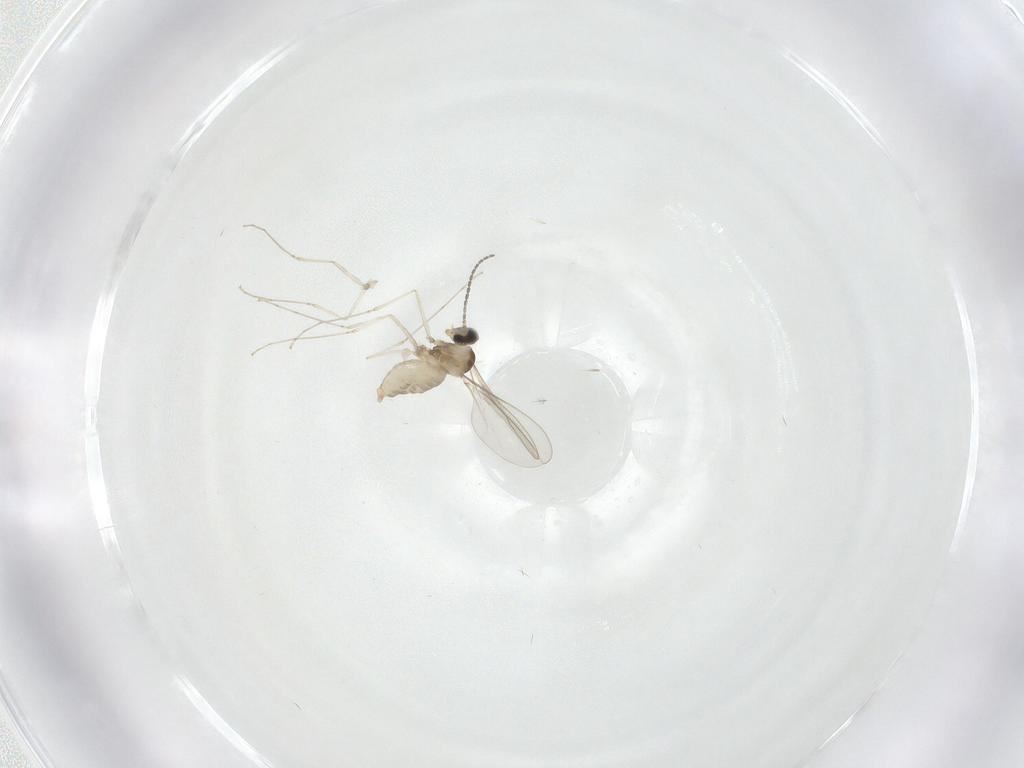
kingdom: Animalia
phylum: Arthropoda
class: Insecta
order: Diptera
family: Cecidomyiidae
